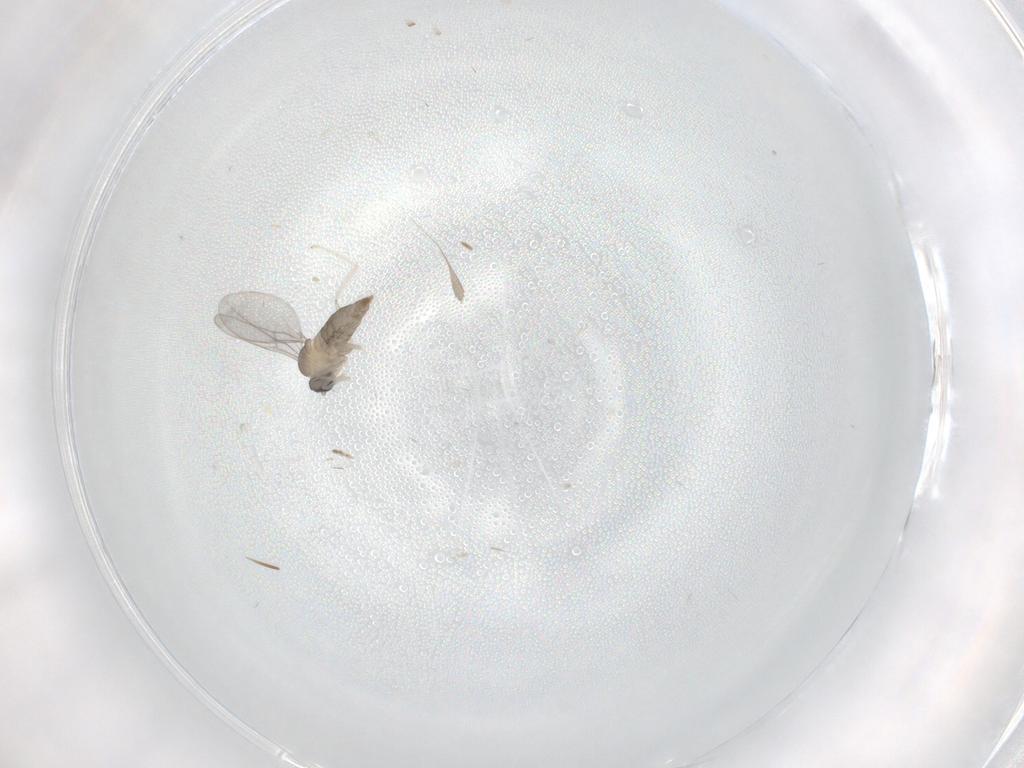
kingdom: Animalia
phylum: Arthropoda
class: Insecta
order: Diptera
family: Cecidomyiidae
